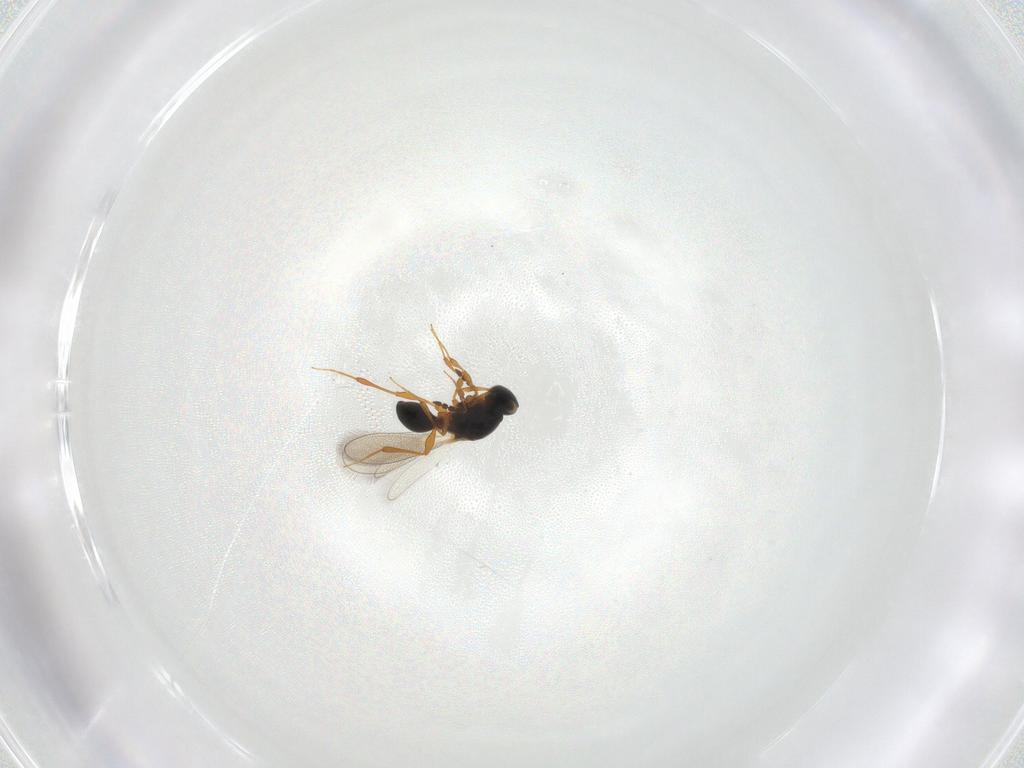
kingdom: Animalia
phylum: Arthropoda
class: Insecta
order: Hymenoptera
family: Platygastridae
